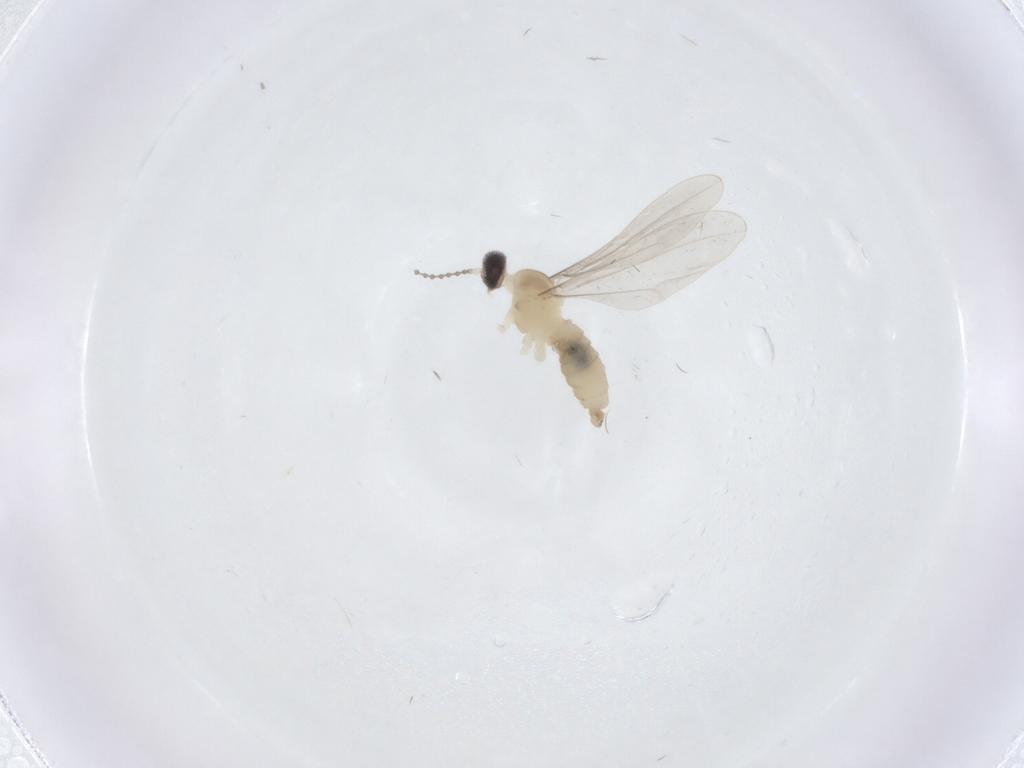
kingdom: Animalia
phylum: Arthropoda
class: Insecta
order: Diptera
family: Cecidomyiidae
